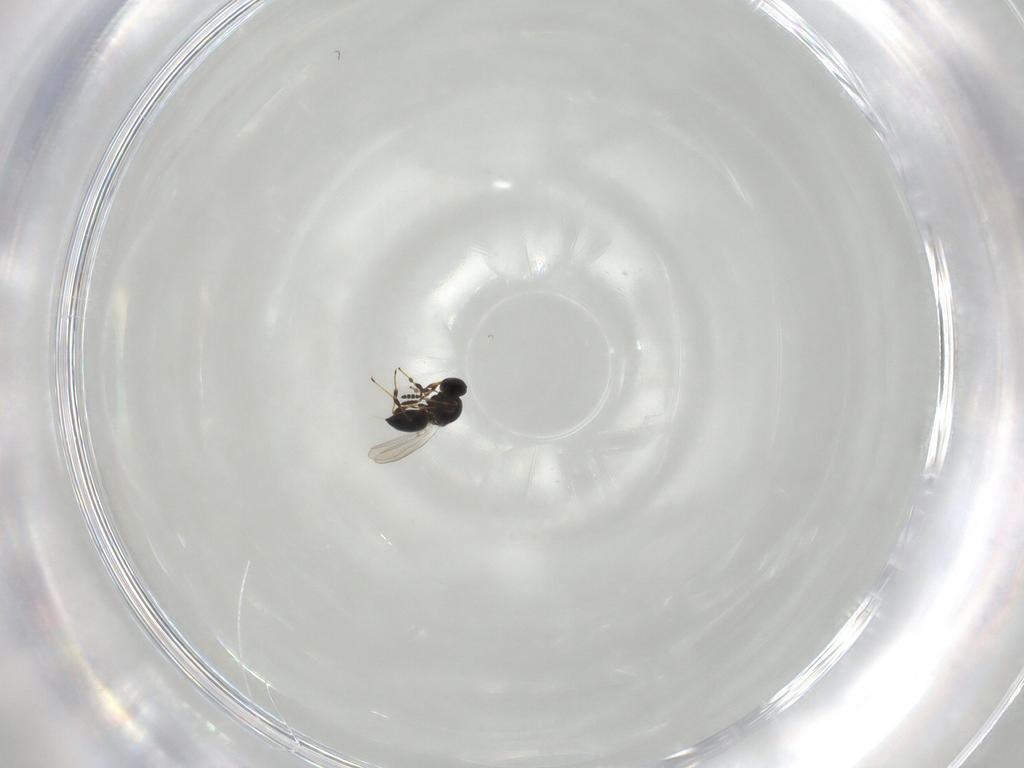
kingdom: Animalia
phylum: Arthropoda
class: Insecta
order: Hymenoptera
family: Platygastridae
